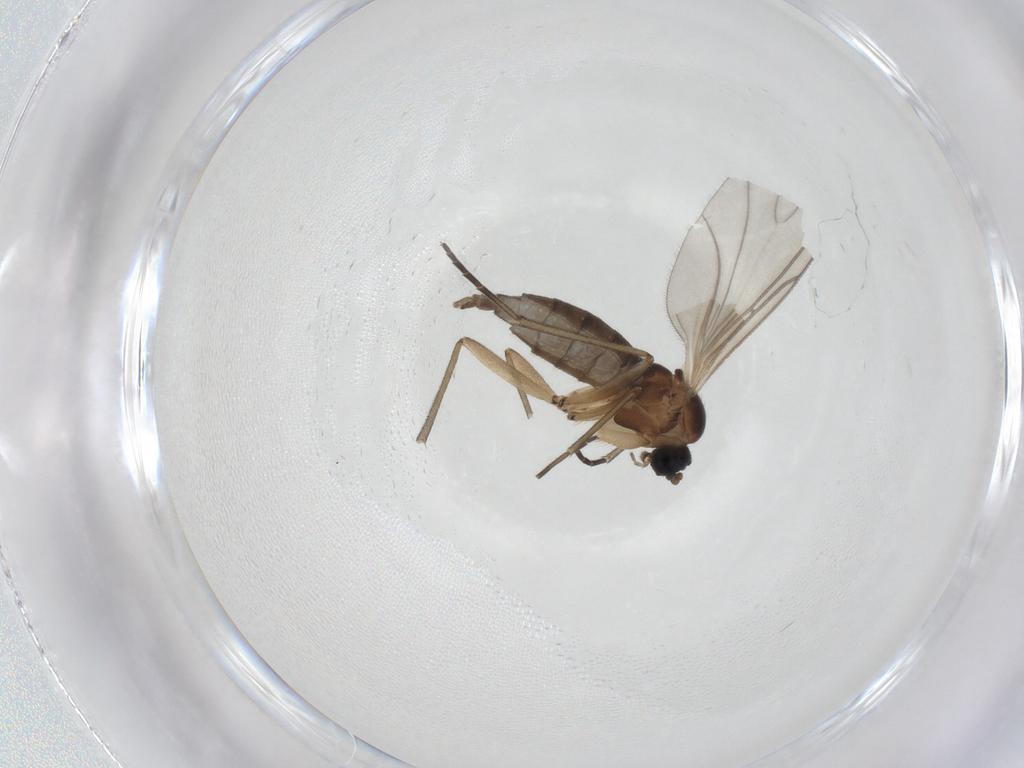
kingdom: Animalia
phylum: Arthropoda
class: Insecta
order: Diptera
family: Sciaridae
